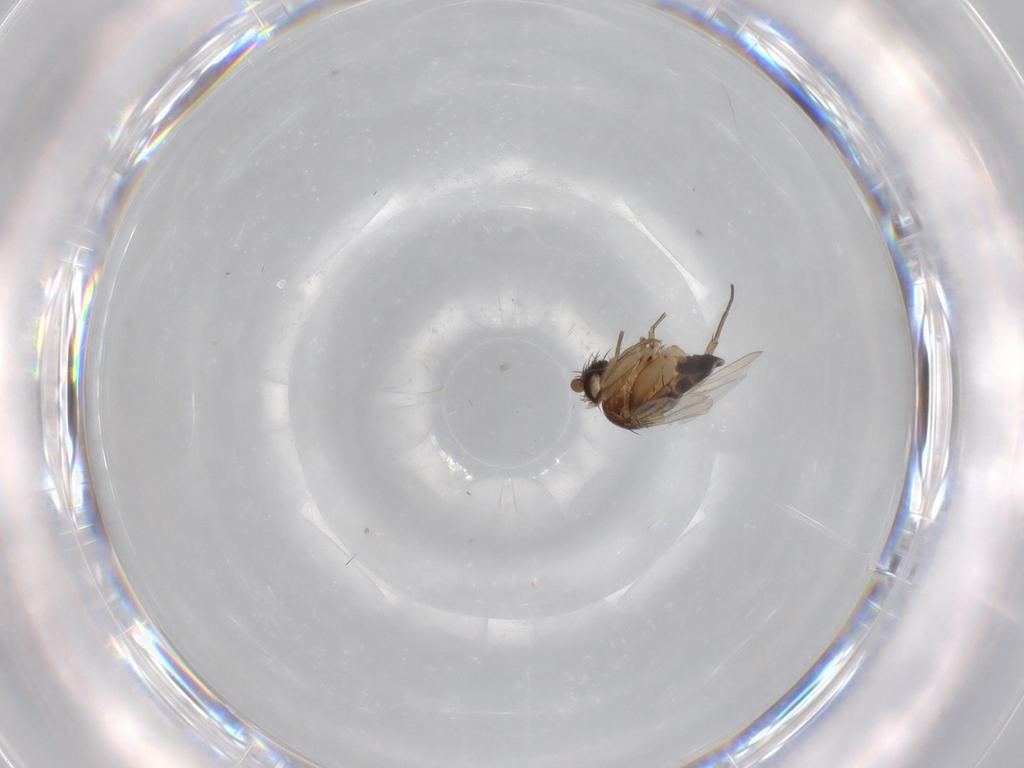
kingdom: Animalia
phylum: Arthropoda
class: Insecta
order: Diptera
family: Phoridae
